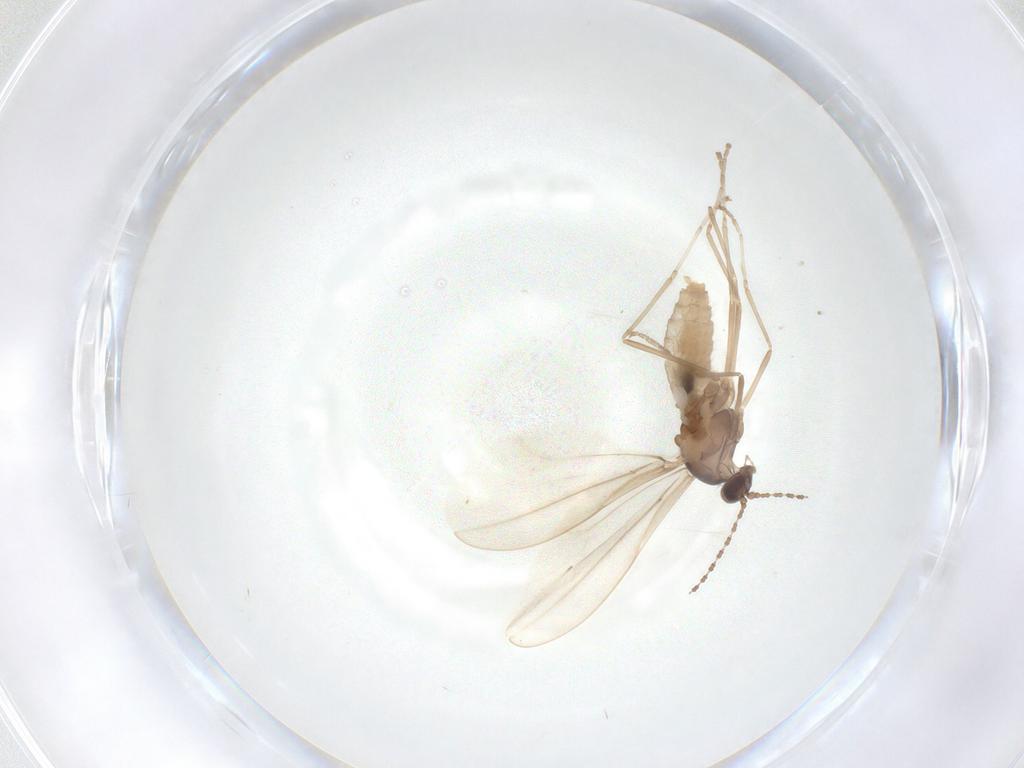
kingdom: Animalia
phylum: Arthropoda
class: Insecta
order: Diptera
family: Cecidomyiidae
